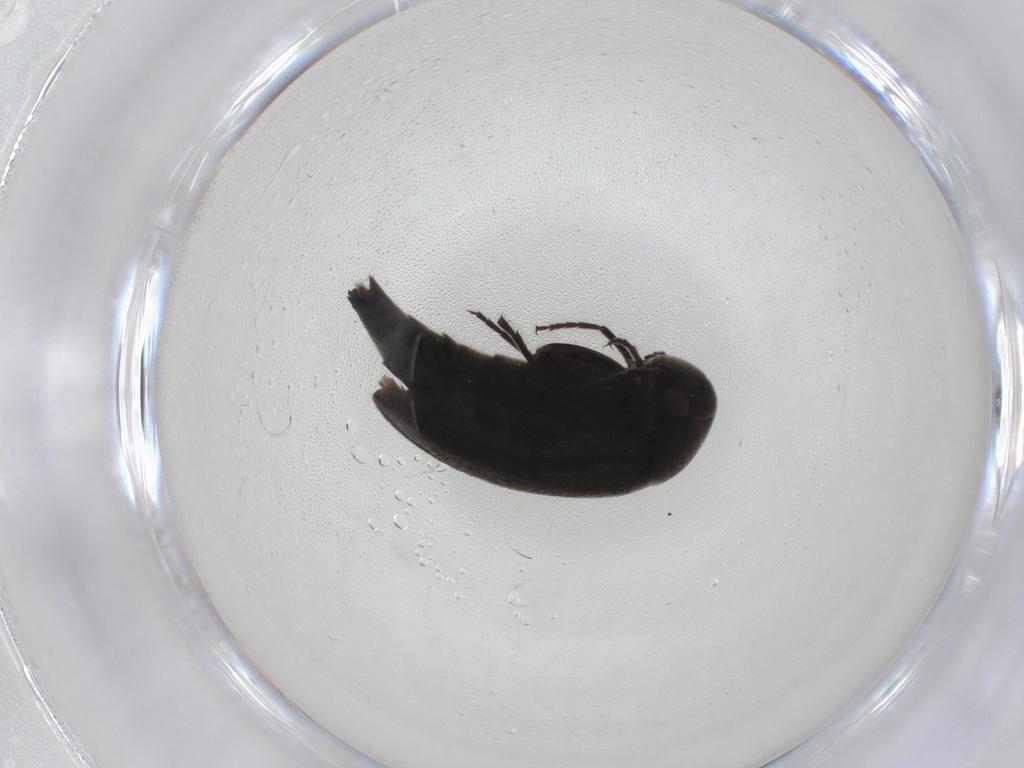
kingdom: Animalia
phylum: Arthropoda
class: Insecta
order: Coleoptera
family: Mordellidae
